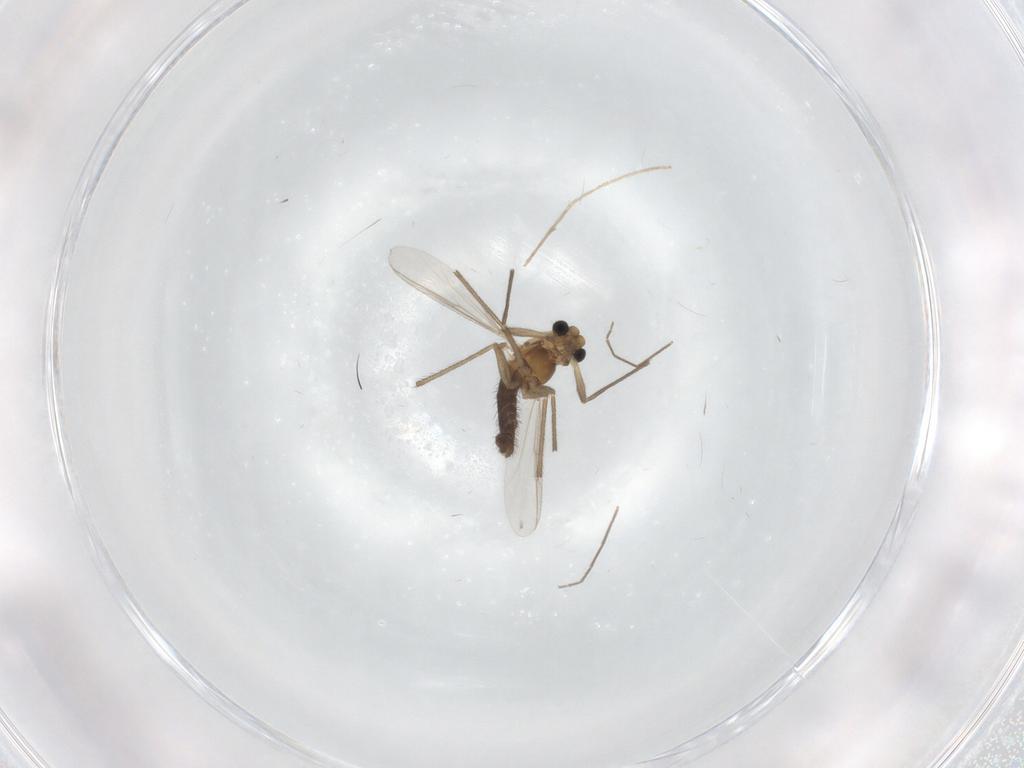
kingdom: Animalia
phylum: Arthropoda
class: Insecta
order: Diptera
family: Chironomidae
